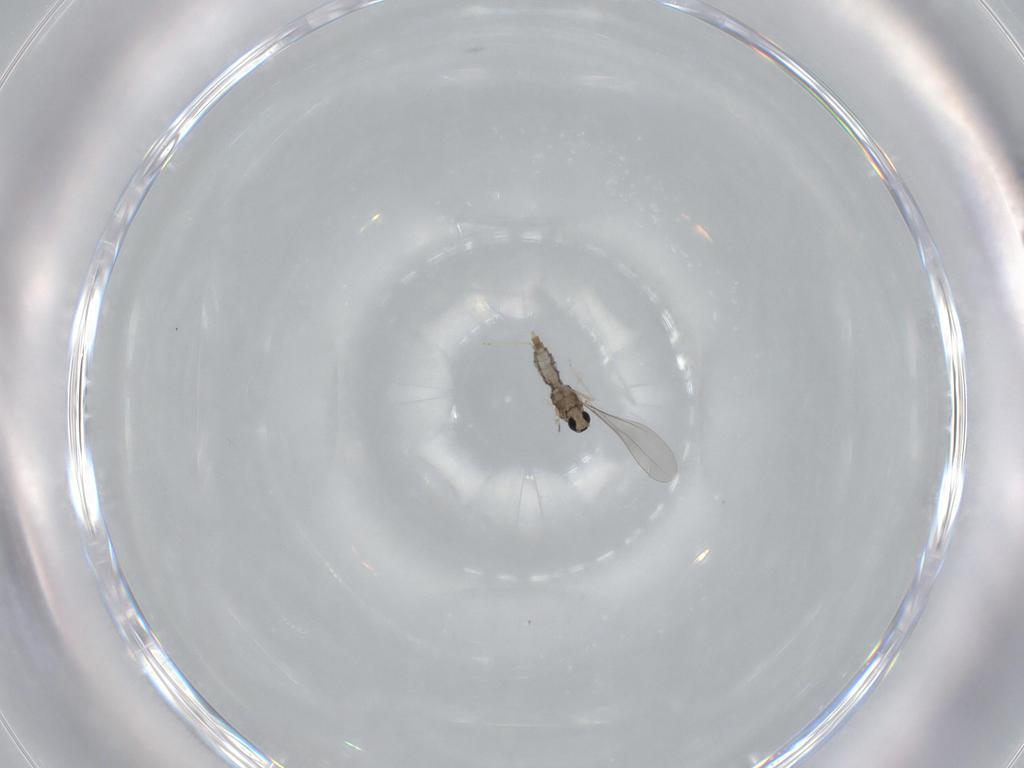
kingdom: Animalia
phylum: Arthropoda
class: Insecta
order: Diptera
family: Cecidomyiidae
